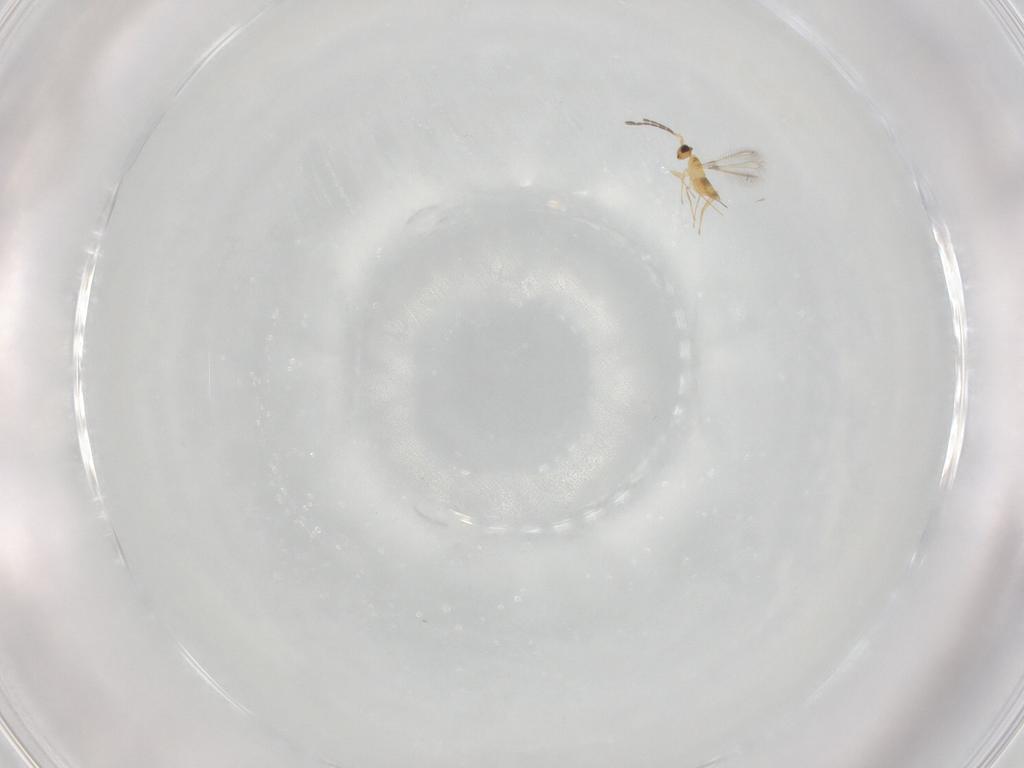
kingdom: Animalia
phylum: Arthropoda
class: Insecta
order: Hymenoptera
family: Mymaridae
